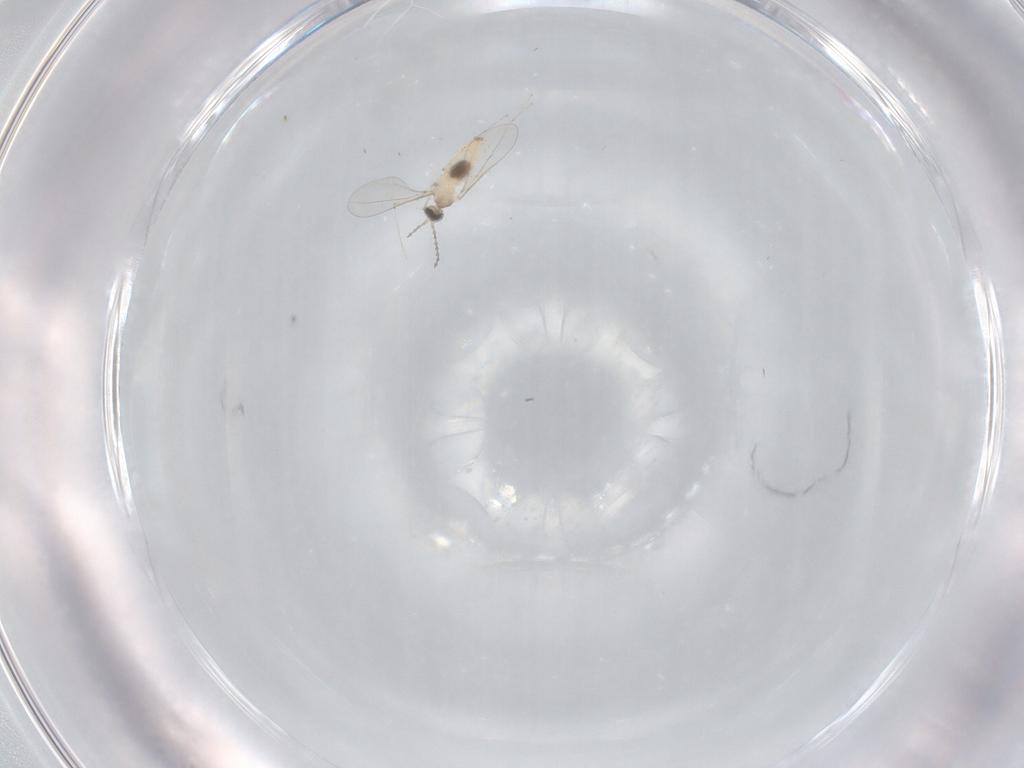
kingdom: Animalia
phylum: Arthropoda
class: Insecta
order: Diptera
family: Cecidomyiidae
